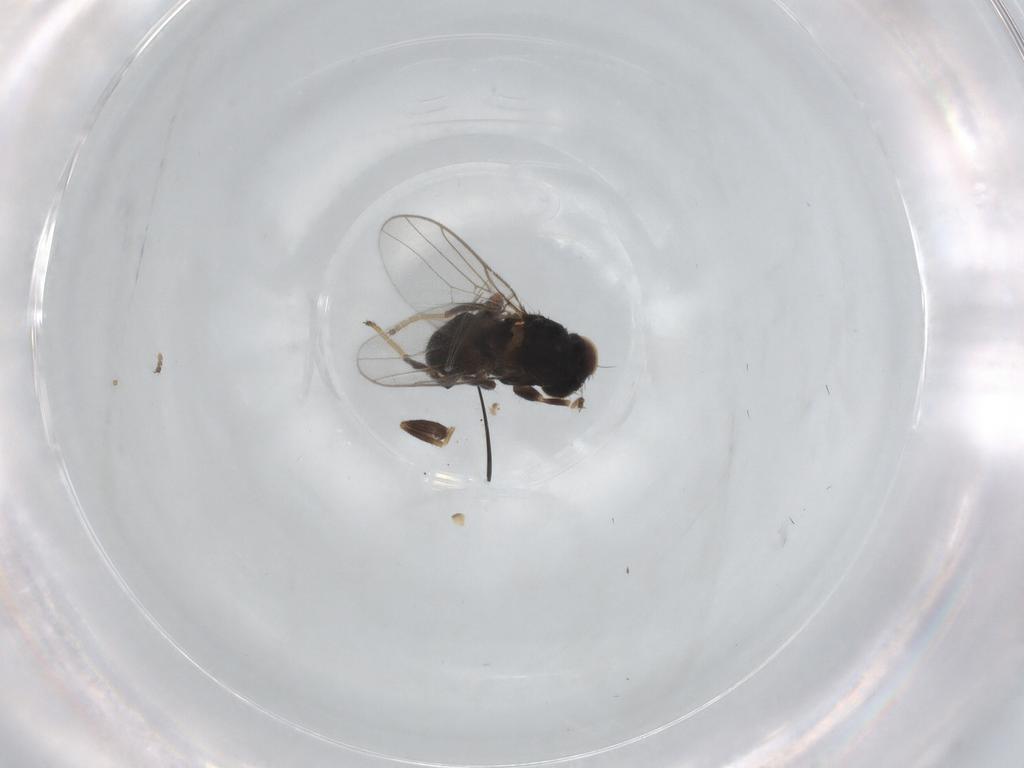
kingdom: Animalia
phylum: Arthropoda
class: Insecta
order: Diptera
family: Chloropidae
